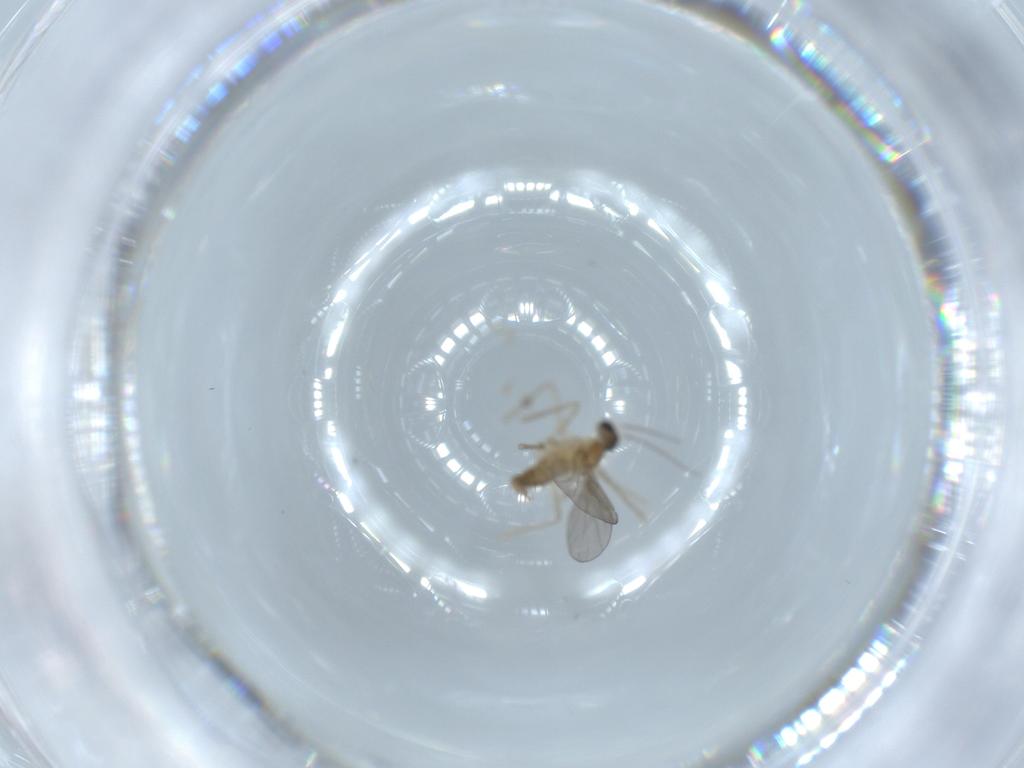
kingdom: Animalia
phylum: Arthropoda
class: Insecta
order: Diptera
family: Cecidomyiidae
